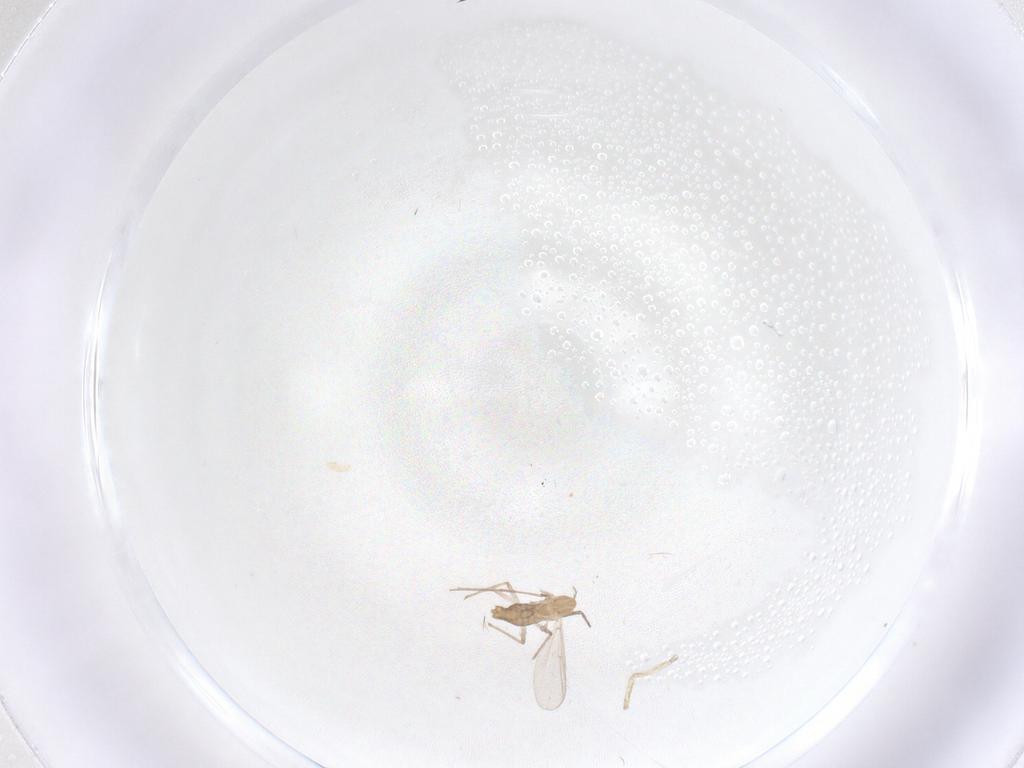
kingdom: Animalia
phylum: Arthropoda
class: Insecta
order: Diptera
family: Chironomidae
